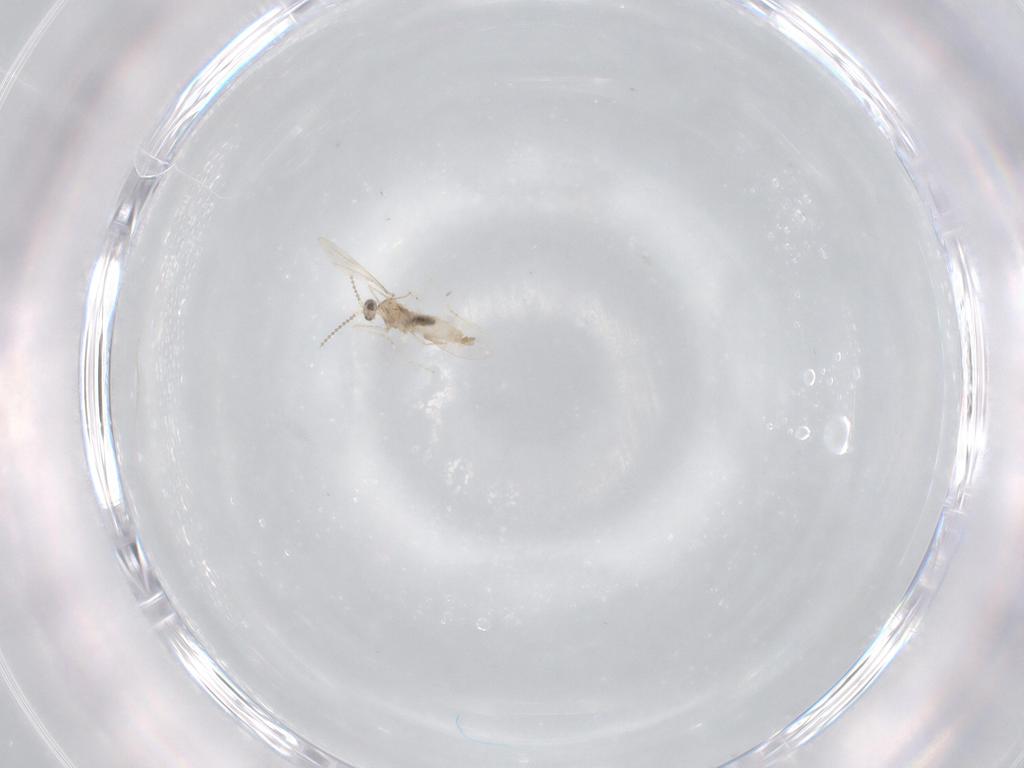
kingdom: Animalia
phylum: Arthropoda
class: Insecta
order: Diptera
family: Cecidomyiidae
